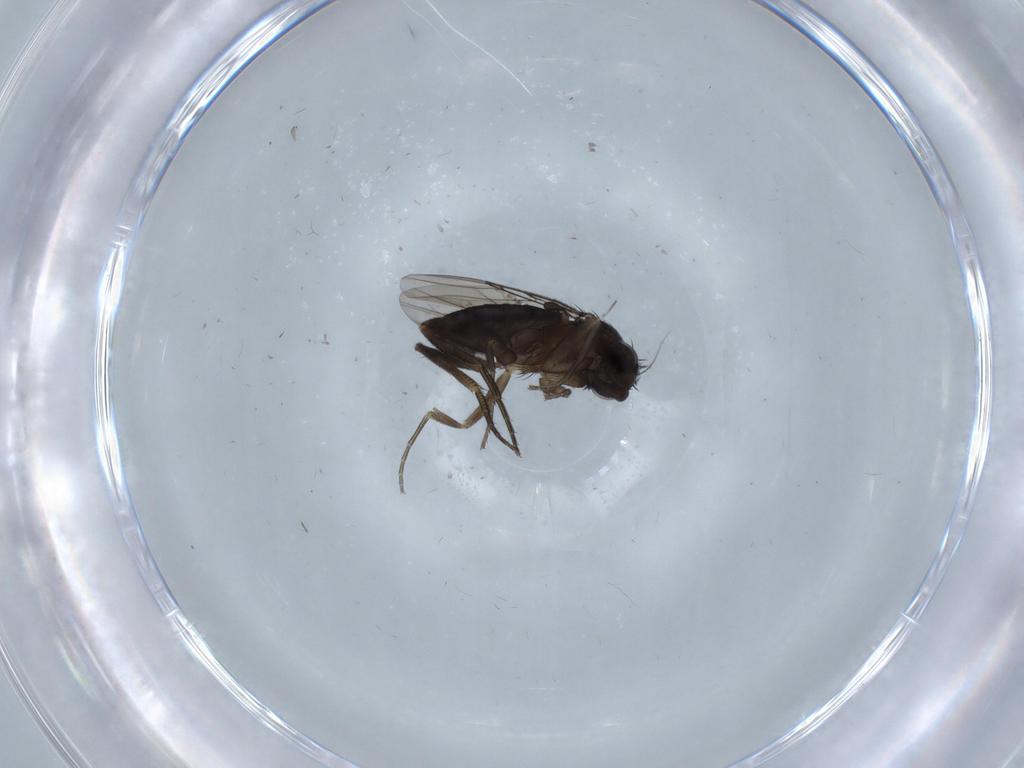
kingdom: Animalia
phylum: Arthropoda
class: Insecta
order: Diptera
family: Phoridae
